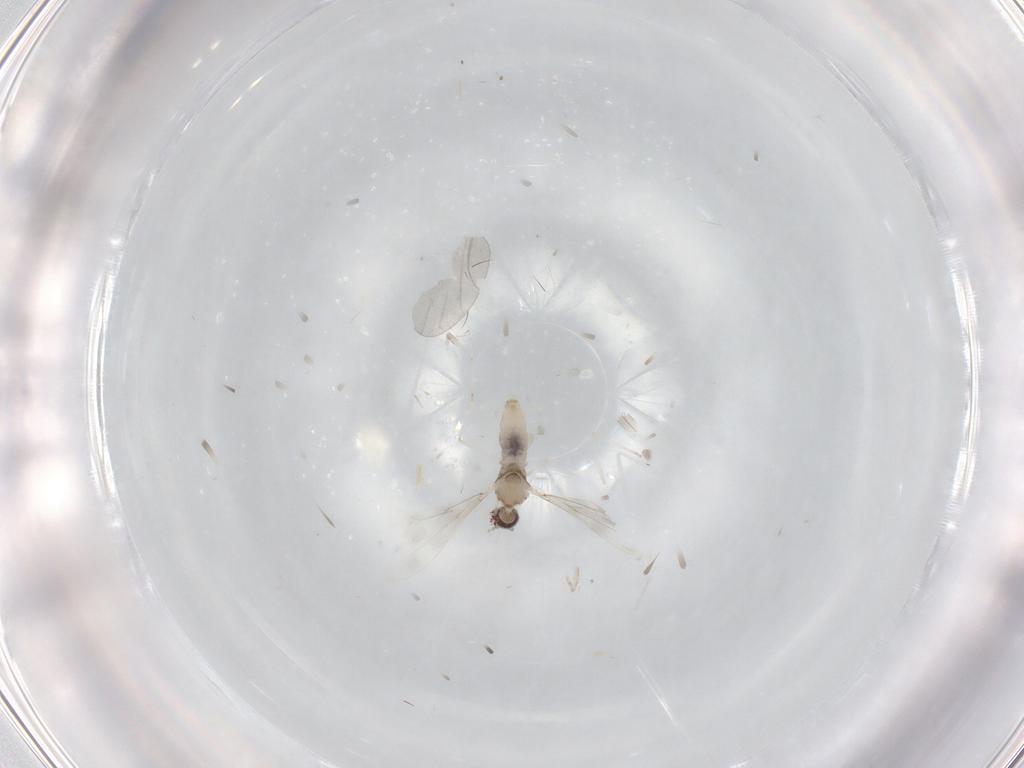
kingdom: Animalia
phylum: Arthropoda
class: Insecta
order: Diptera
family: Cecidomyiidae
